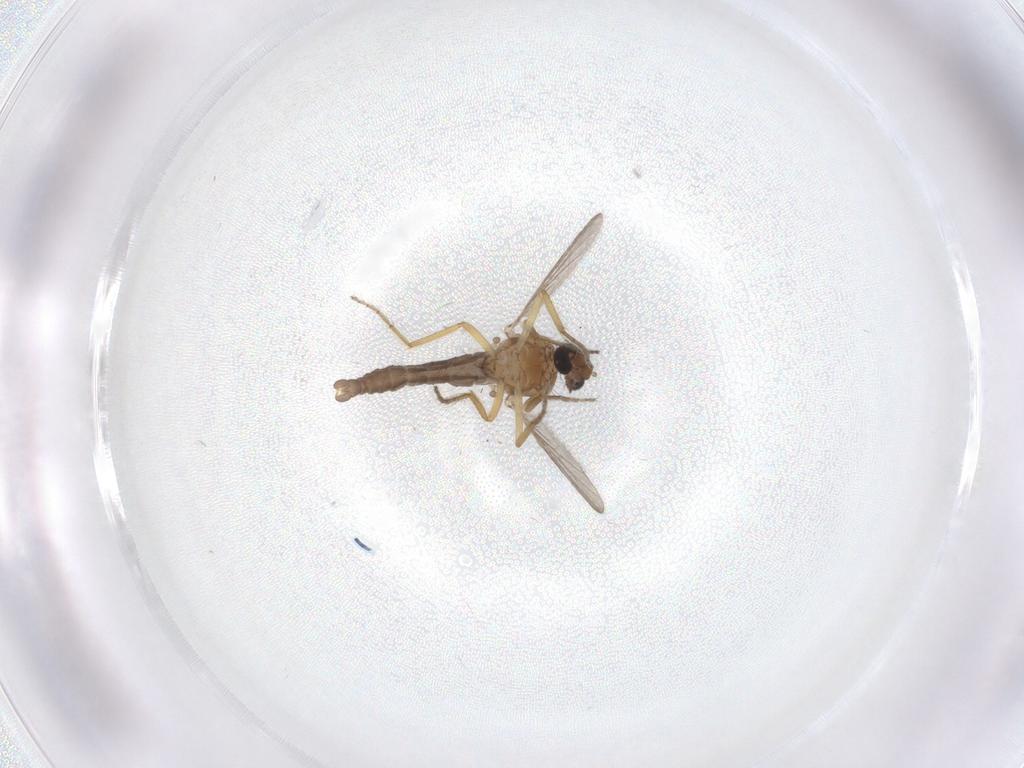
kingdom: Animalia
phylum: Arthropoda
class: Insecta
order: Diptera
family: Ceratopogonidae
